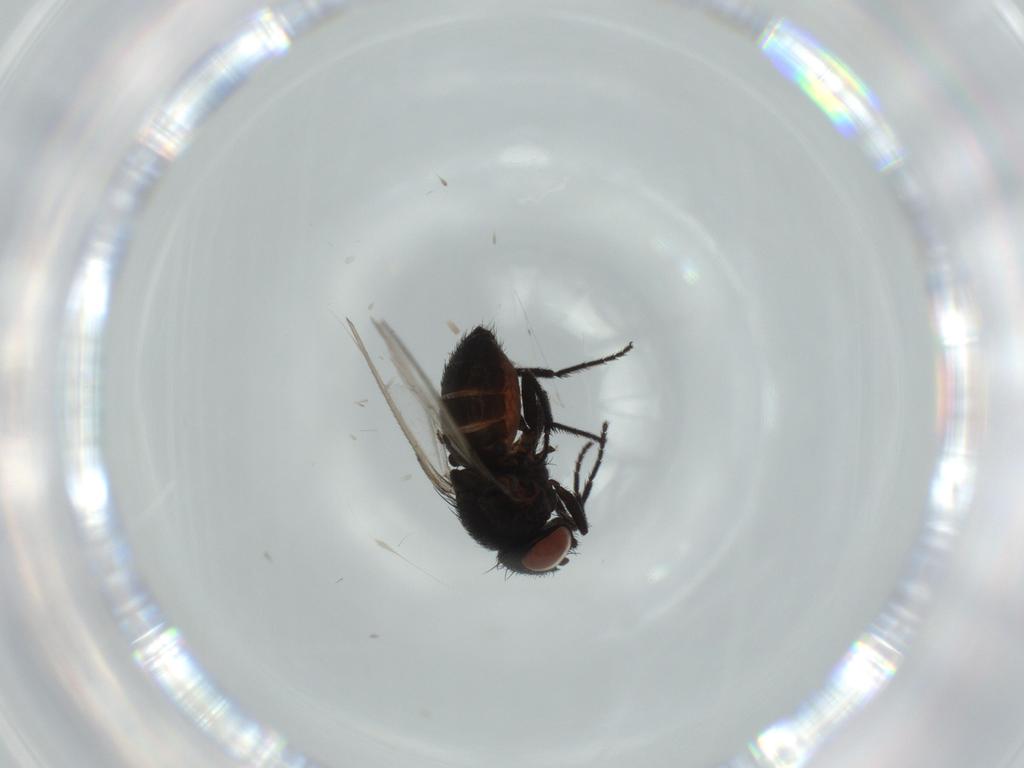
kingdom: Animalia
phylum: Arthropoda
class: Insecta
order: Diptera
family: Milichiidae
